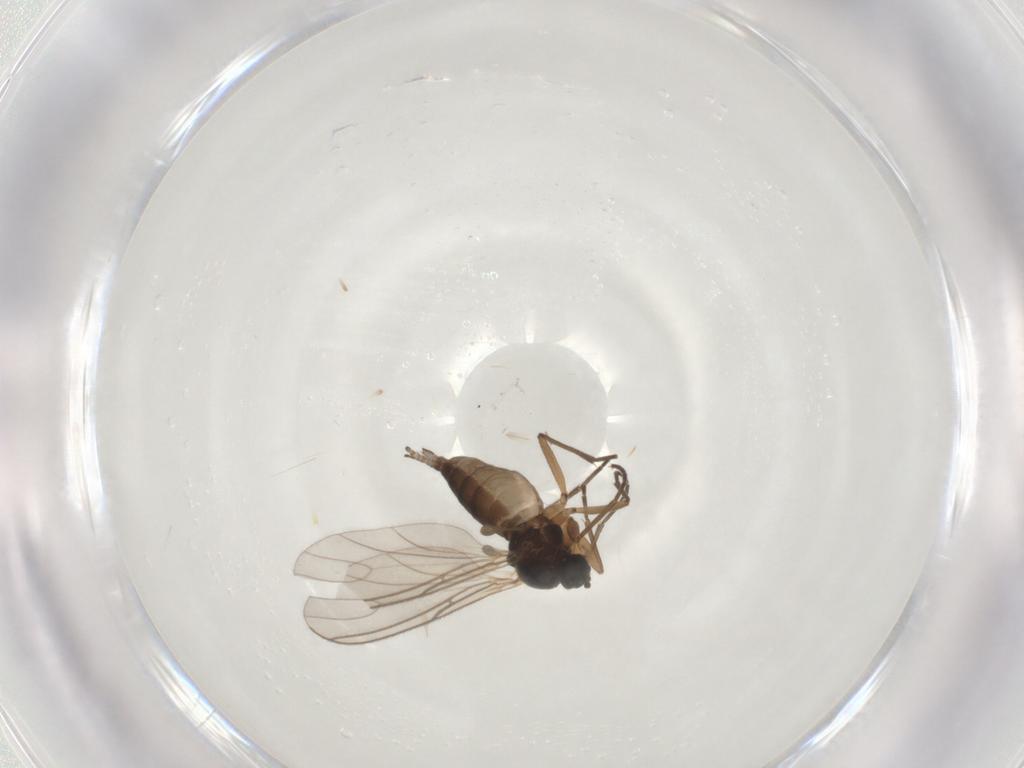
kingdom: Animalia
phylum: Arthropoda
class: Insecta
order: Diptera
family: Sciaridae
